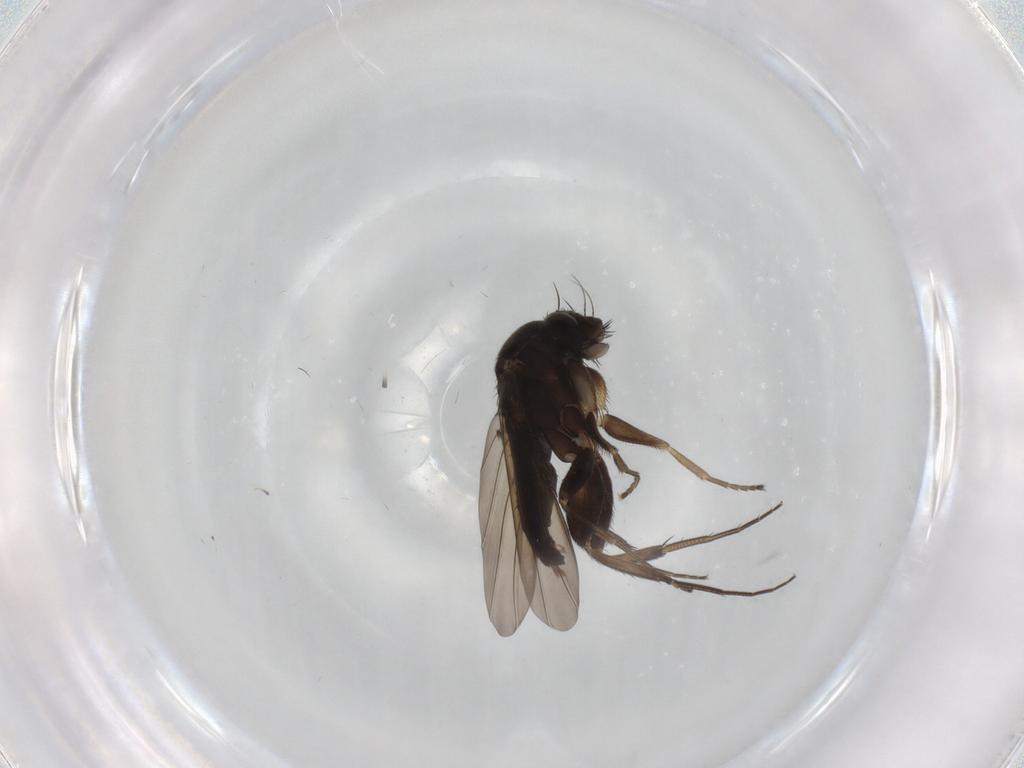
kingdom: Animalia
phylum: Arthropoda
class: Insecta
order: Diptera
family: Phoridae
